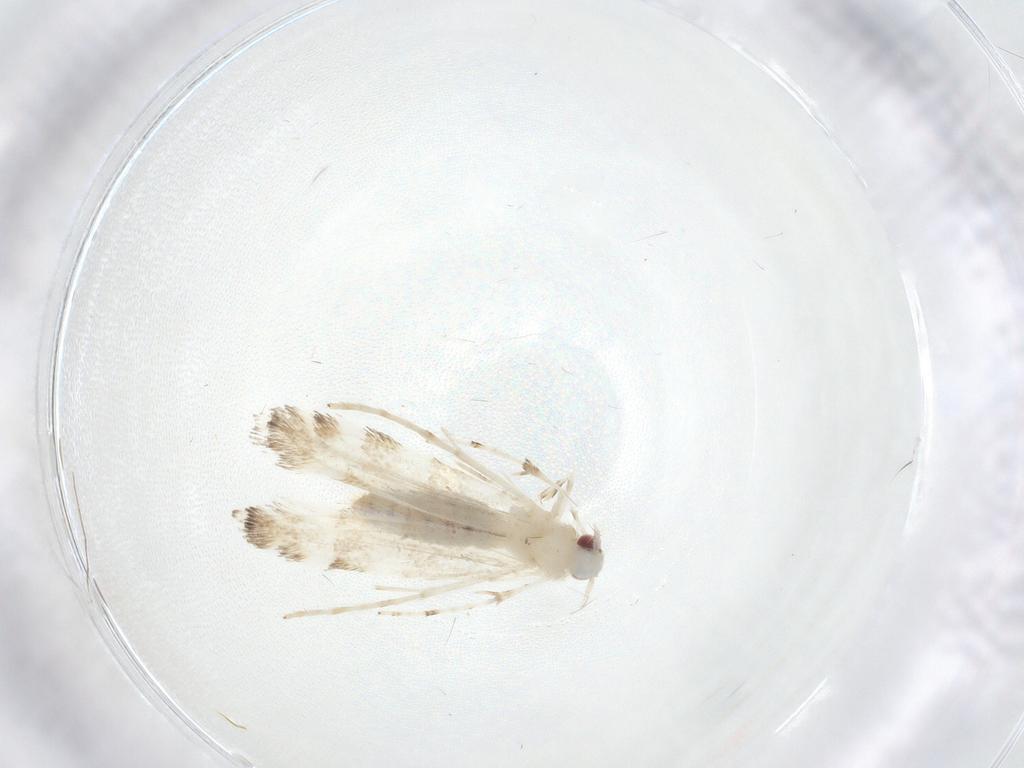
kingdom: Animalia
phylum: Arthropoda
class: Insecta
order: Lepidoptera
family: Gracillariidae
